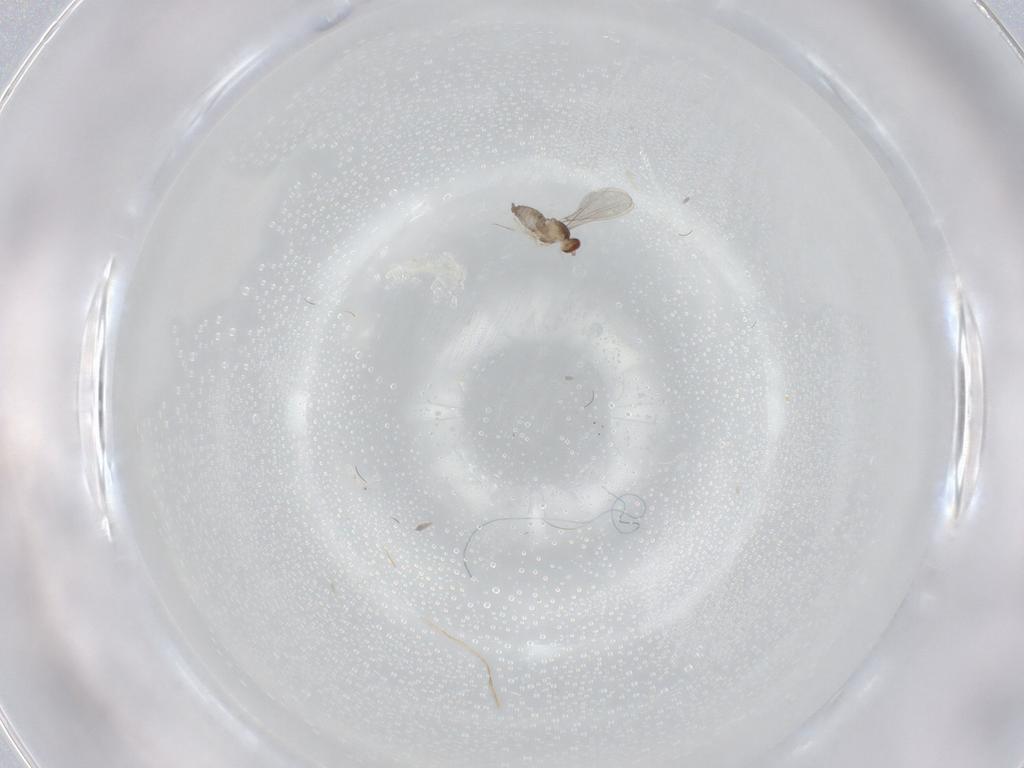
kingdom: Animalia
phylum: Arthropoda
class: Insecta
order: Diptera
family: Cecidomyiidae
